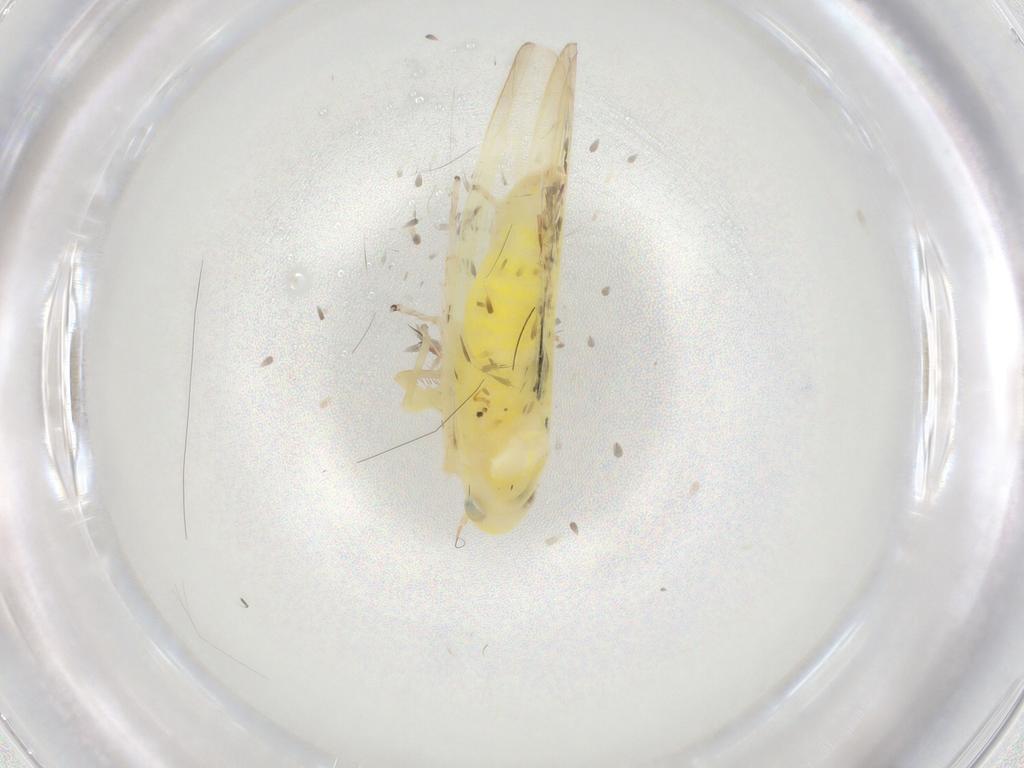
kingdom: Animalia
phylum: Arthropoda
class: Insecta
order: Hemiptera
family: Cicadellidae
